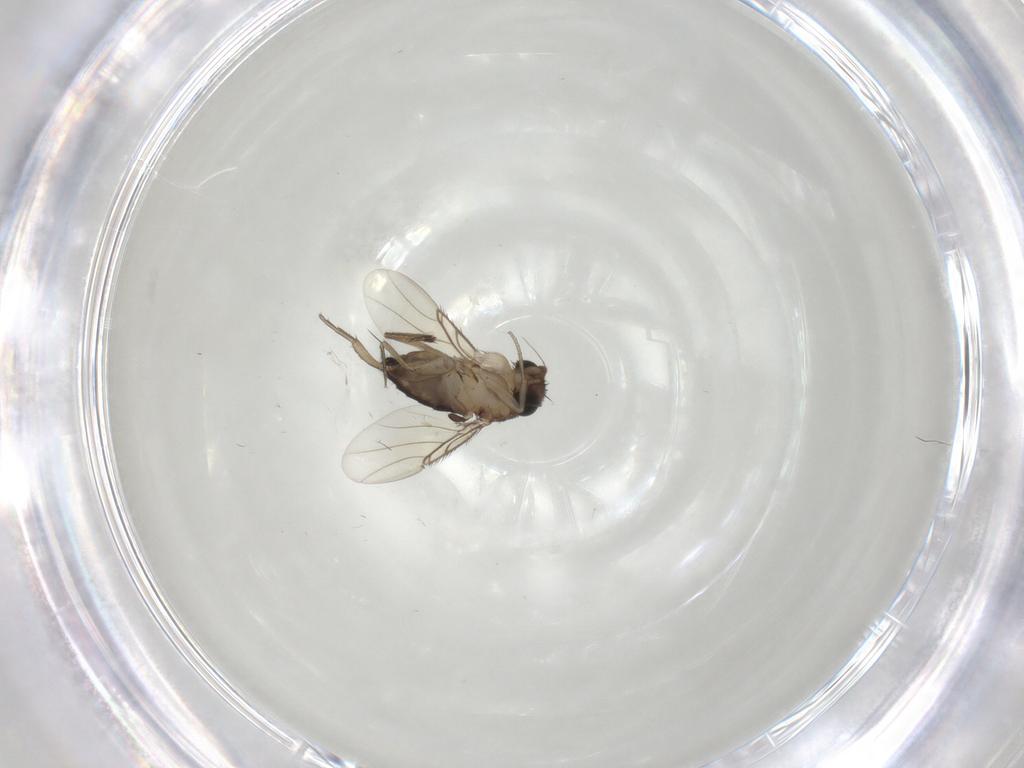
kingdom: Animalia
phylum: Arthropoda
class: Insecta
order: Diptera
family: Phoridae
